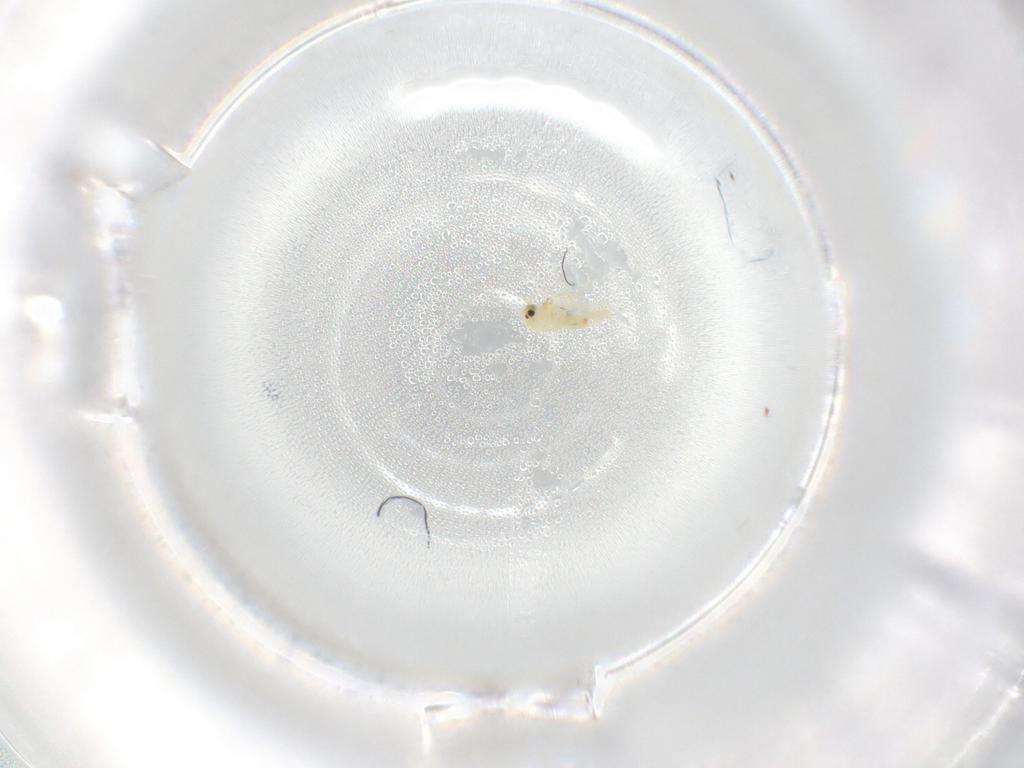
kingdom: Animalia
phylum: Arthropoda
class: Insecta
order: Hemiptera
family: Aleyrodidae
